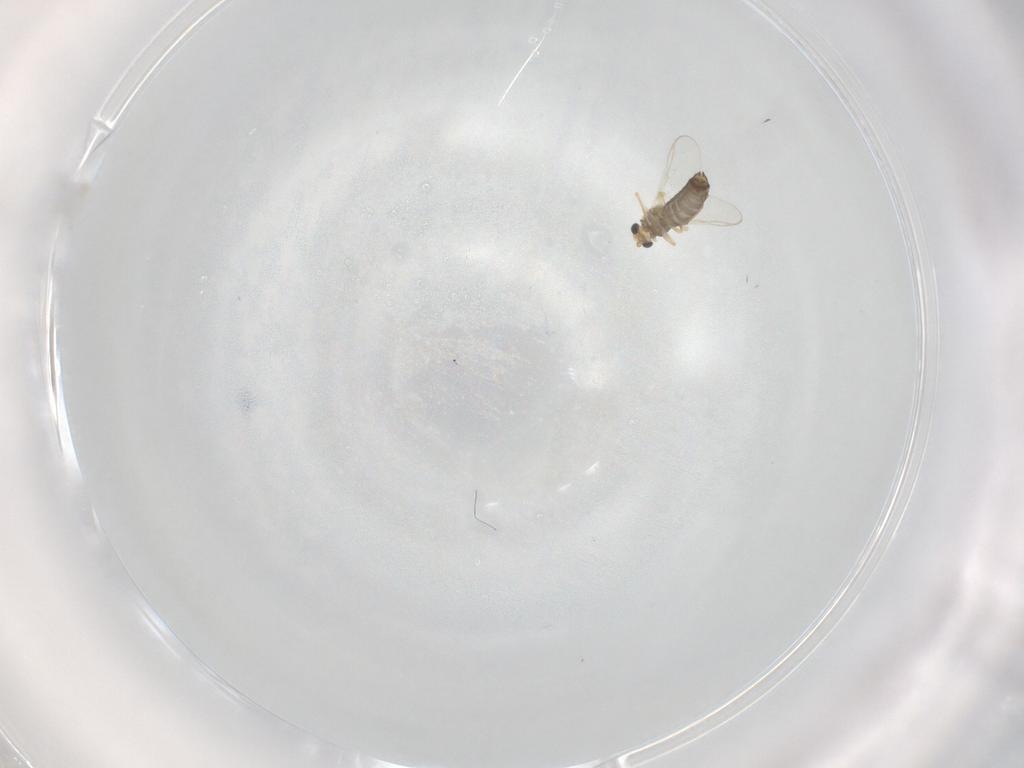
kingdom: Animalia
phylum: Arthropoda
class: Insecta
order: Diptera
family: Chironomidae
